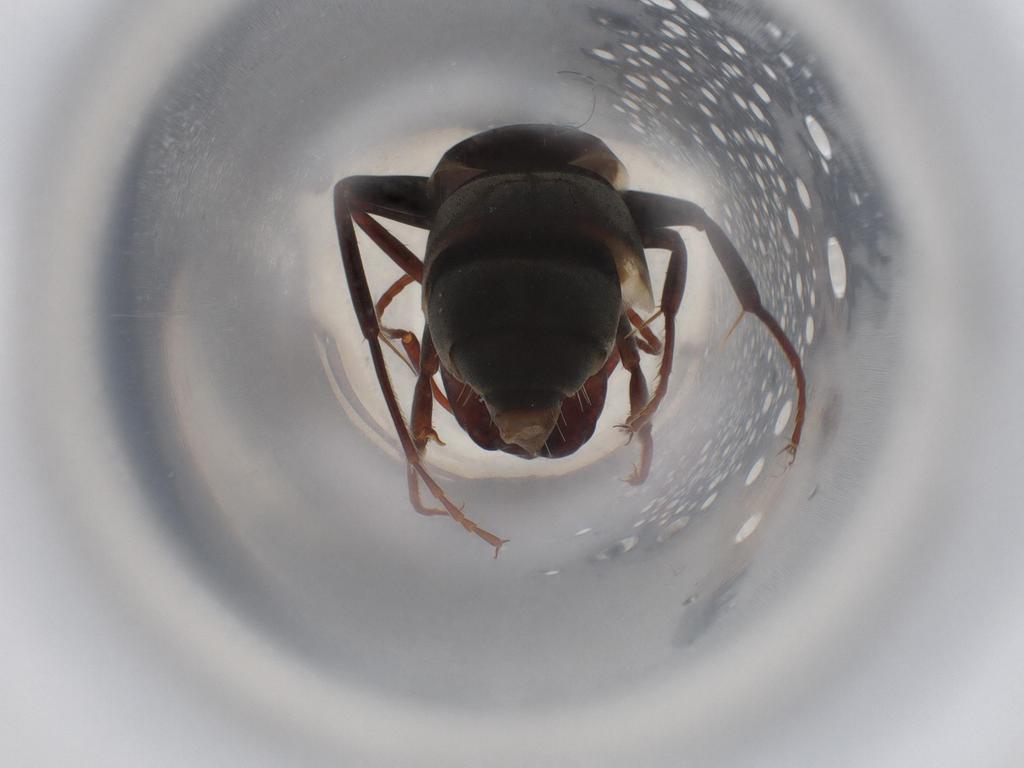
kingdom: Animalia
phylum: Arthropoda
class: Insecta
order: Hymenoptera
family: Formicidae
